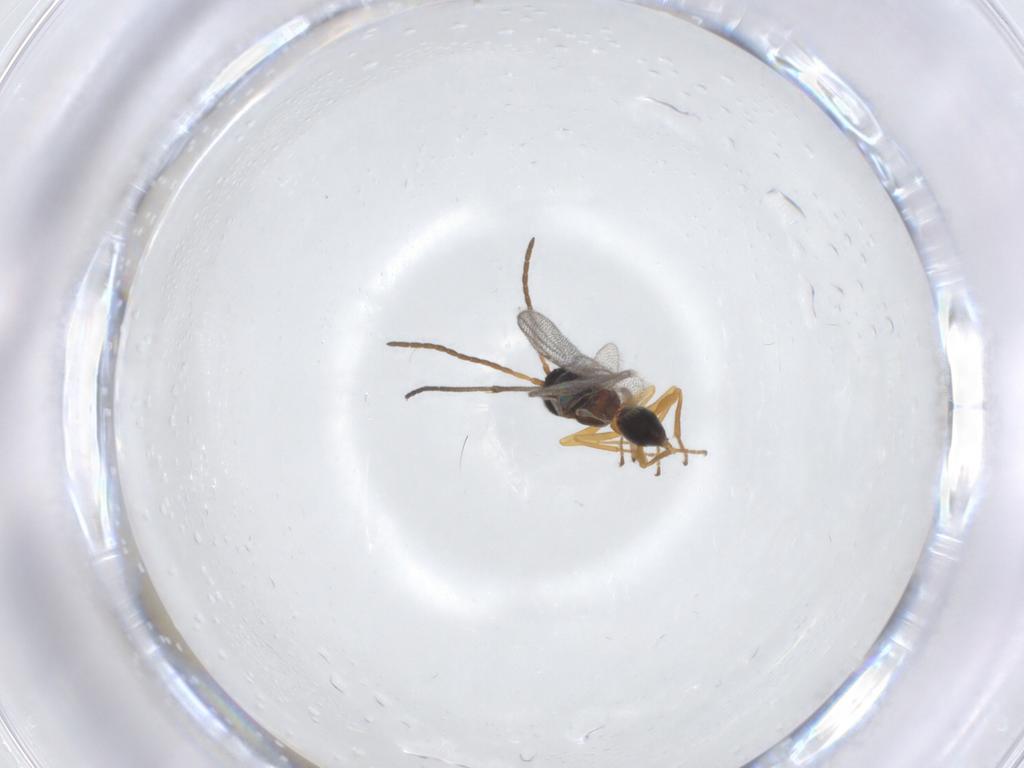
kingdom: Animalia
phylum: Arthropoda
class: Insecta
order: Hymenoptera
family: Cynipidae
